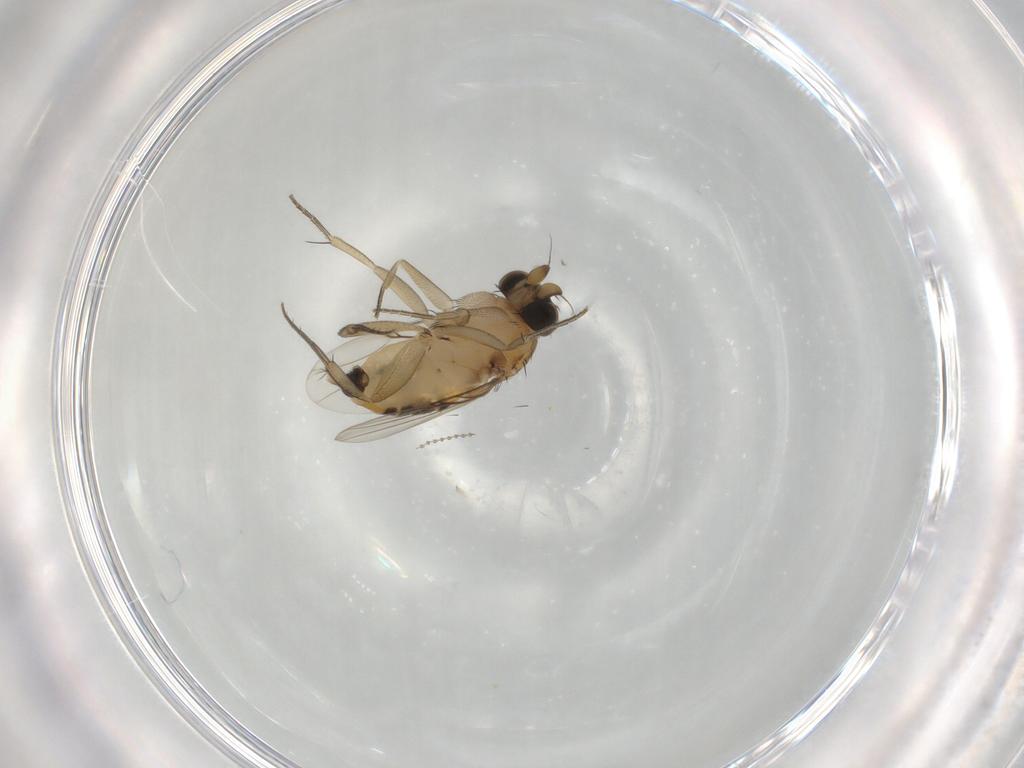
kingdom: Animalia
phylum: Arthropoda
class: Insecta
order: Diptera
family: Phoridae
